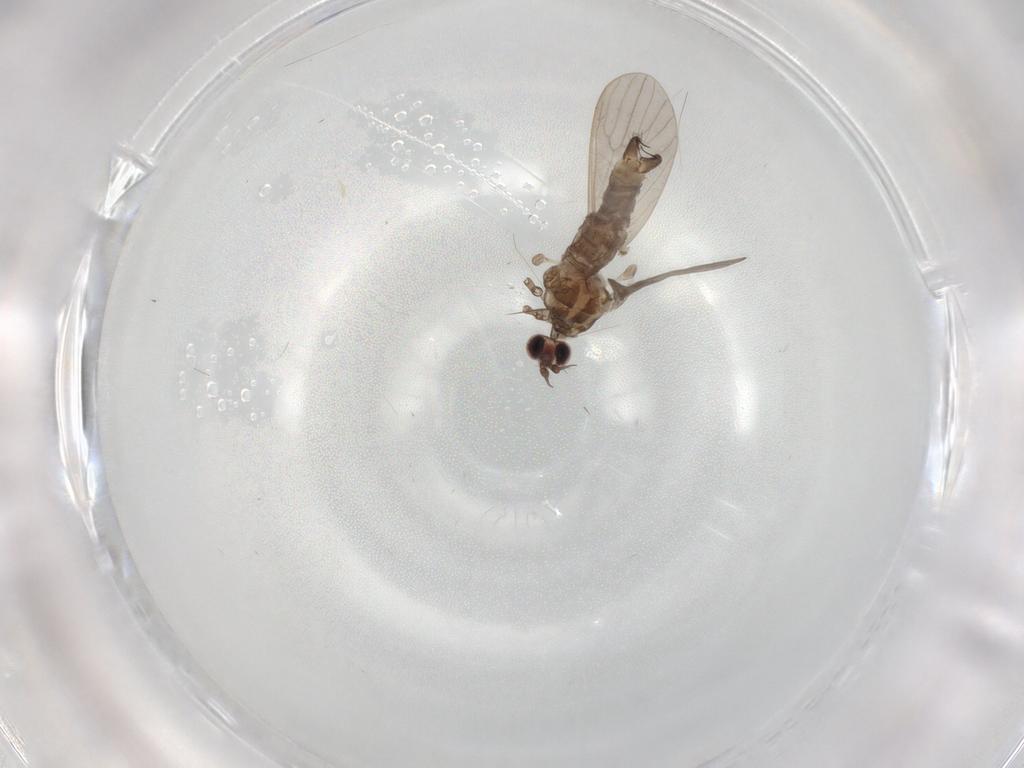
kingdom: Animalia
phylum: Arthropoda
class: Insecta
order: Diptera
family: Limoniidae
